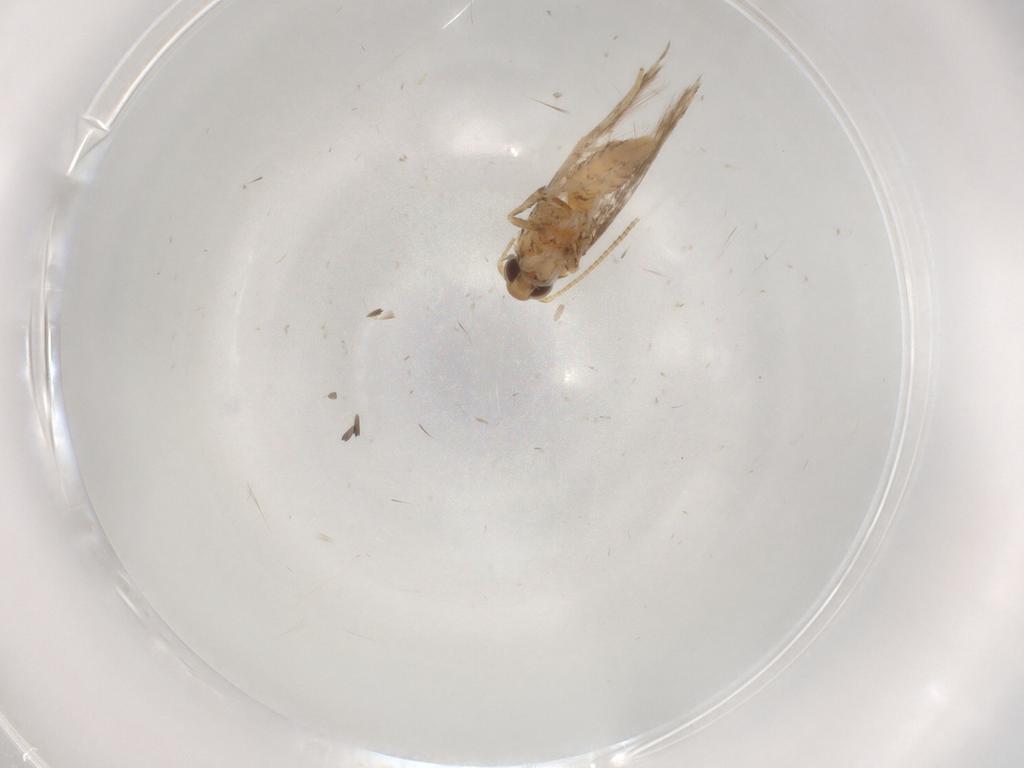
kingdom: Animalia
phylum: Arthropoda
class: Insecta
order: Lepidoptera
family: Gracillariidae
